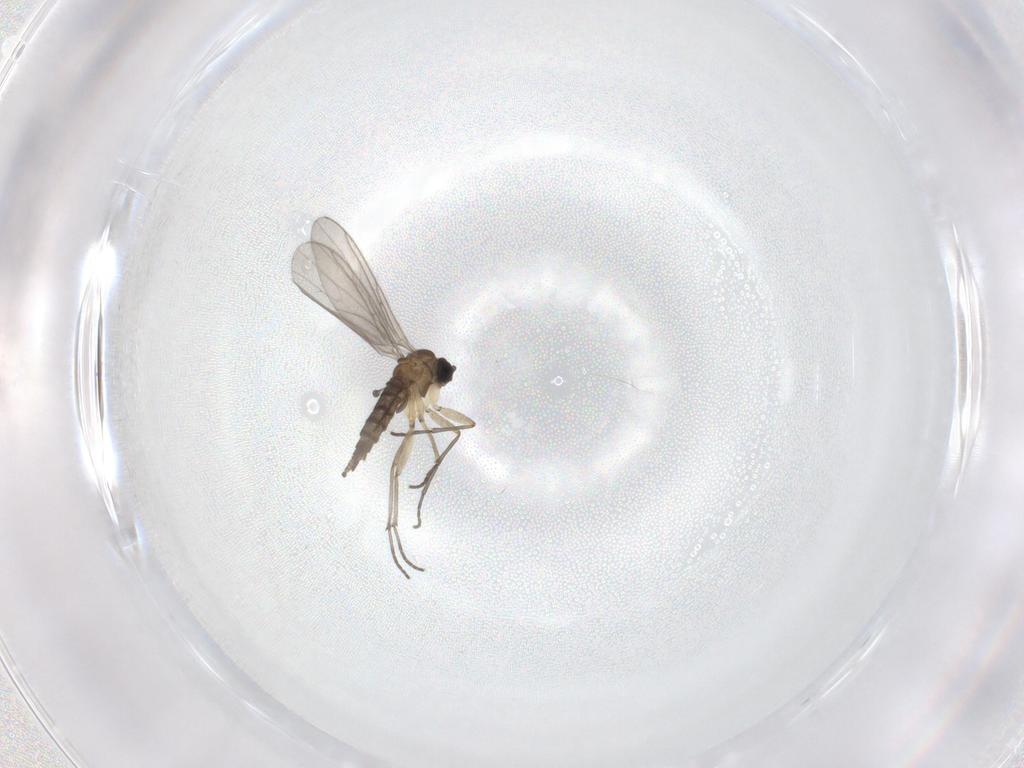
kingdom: Animalia
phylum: Arthropoda
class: Insecta
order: Diptera
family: Sciaridae
